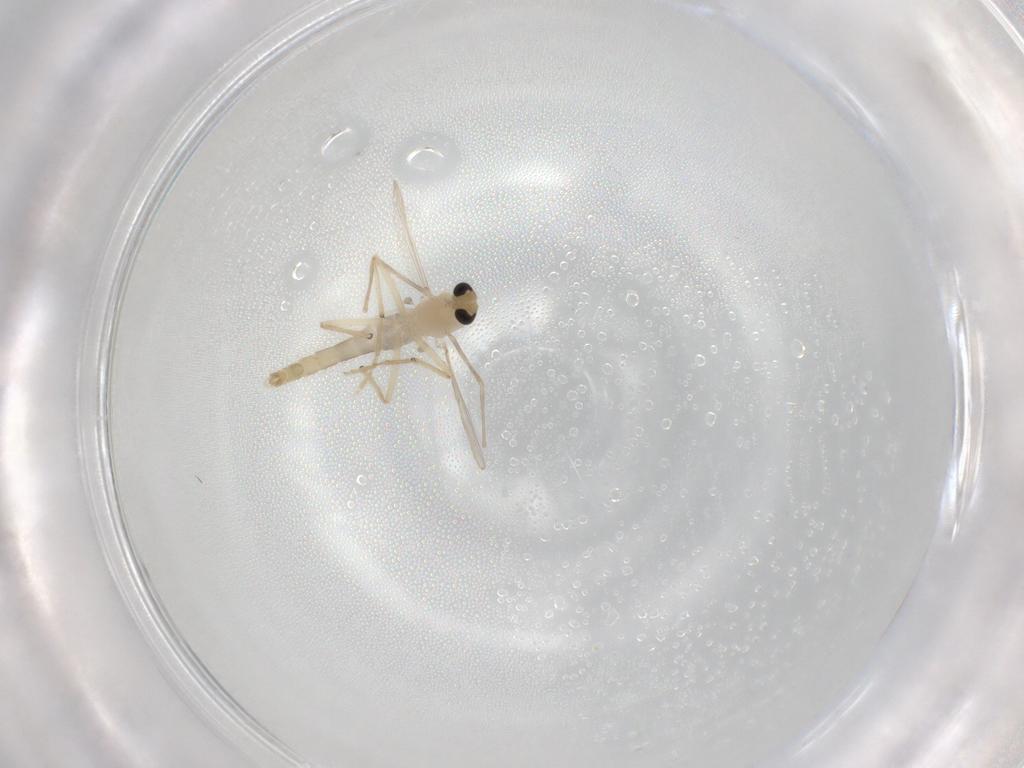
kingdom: Animalia
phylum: Arthropoda
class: Insecta
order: Diptera
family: Chironomidae
